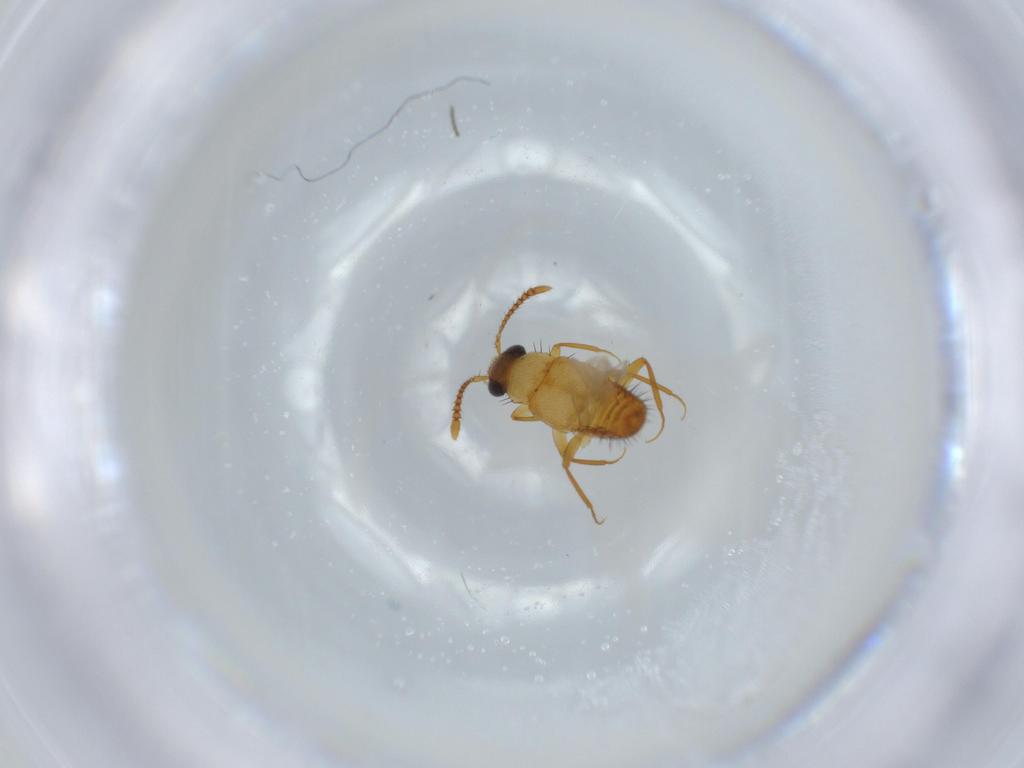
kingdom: Animalia
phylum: Arthropoda
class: Insecta
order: Coleoptera
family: Staphylinidae
